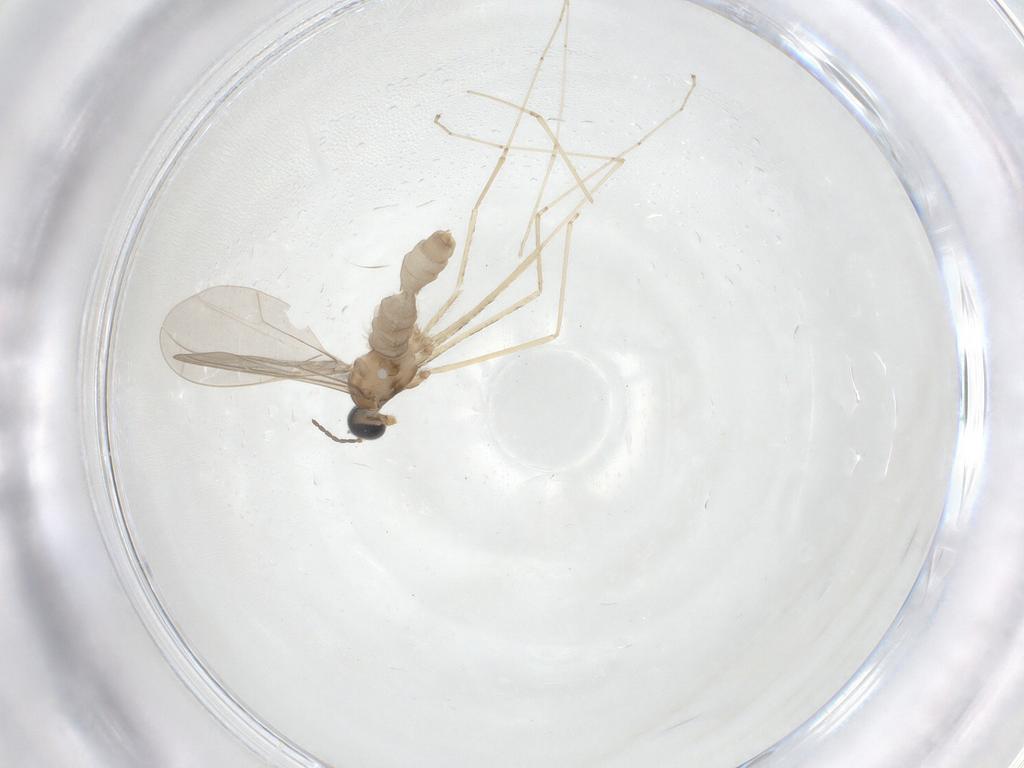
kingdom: Animalia
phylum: Arthropoda
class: Insecta
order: Diptera
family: Cecidomyiidae
